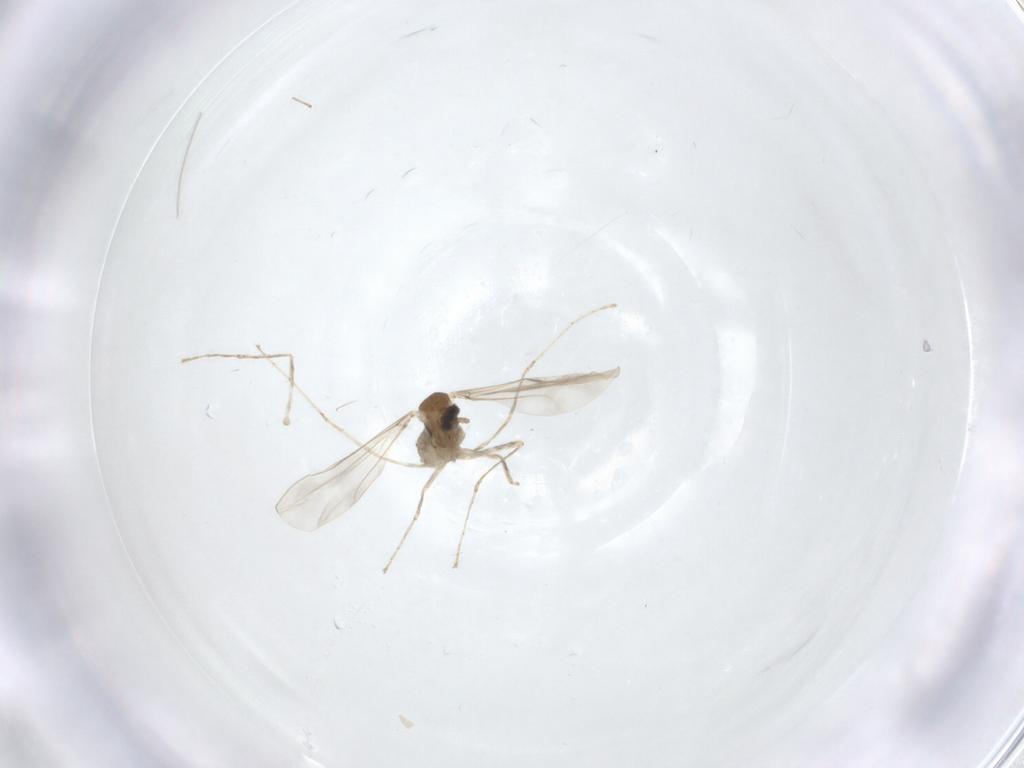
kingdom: Animalia
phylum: Arthropoda
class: Insecta
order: Diptera
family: Cecidomyiidae
